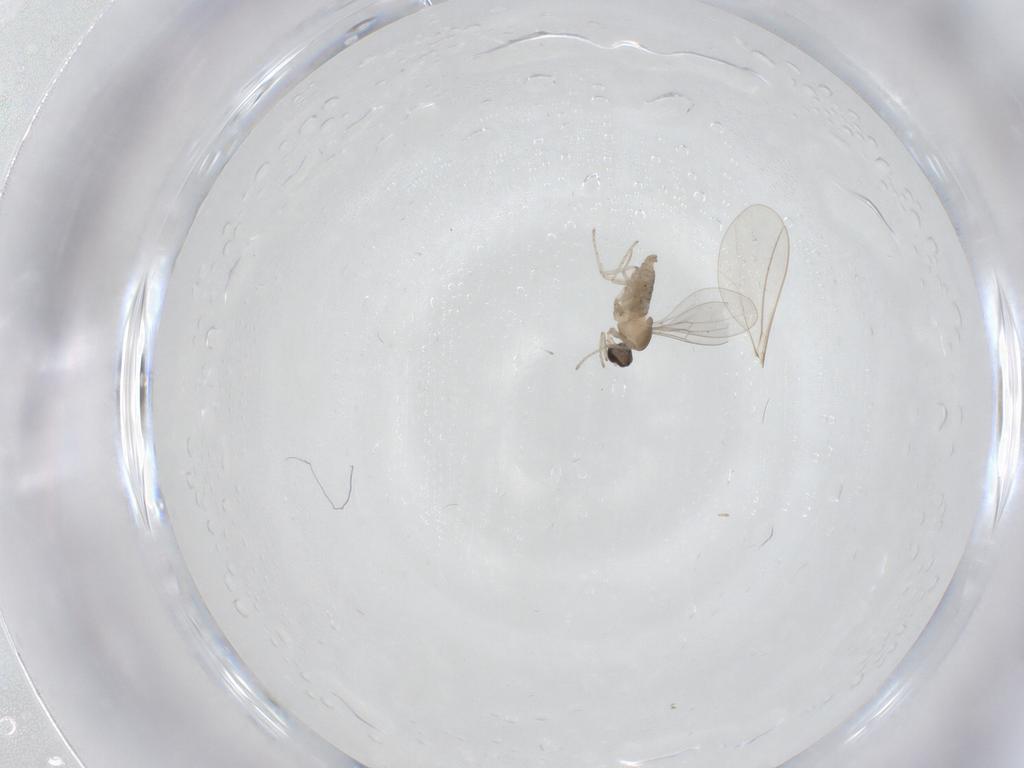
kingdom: Animalia
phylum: Arthropoda
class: Insecta
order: Diptera
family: Cecidomyiidae
